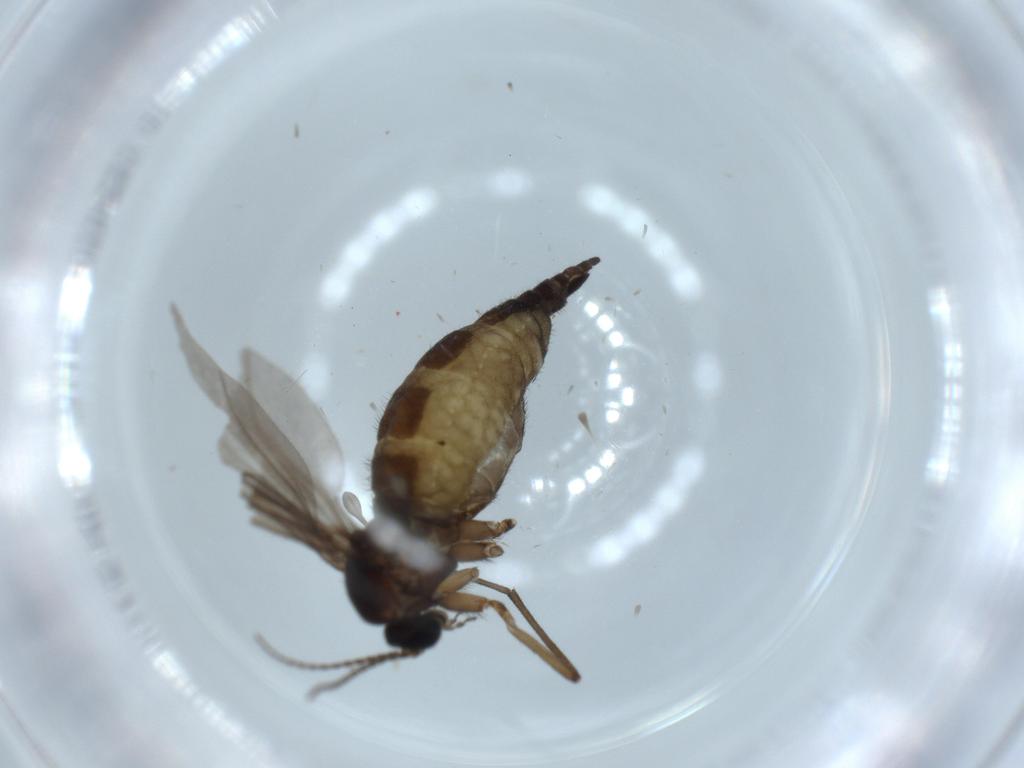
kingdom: Animalia
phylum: Arthropoda
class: Insecta
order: Diptera
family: Sciaridae
